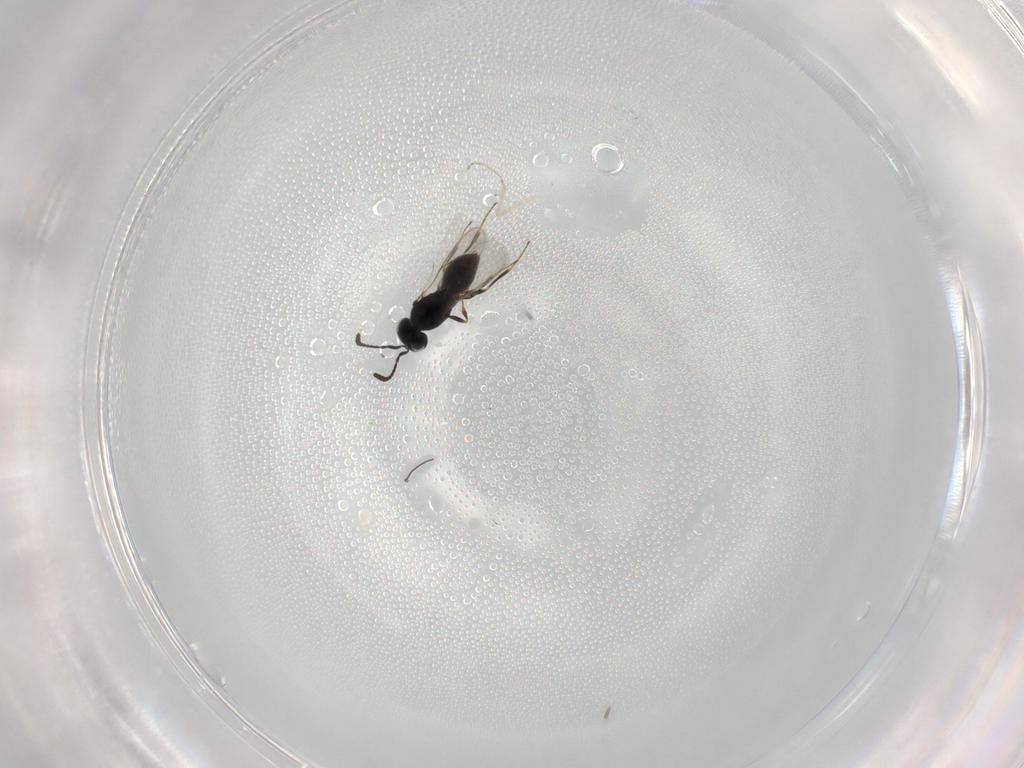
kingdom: Animalia
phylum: Arthropoda
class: Insecta
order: Hymenoptera
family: Scelionidae
